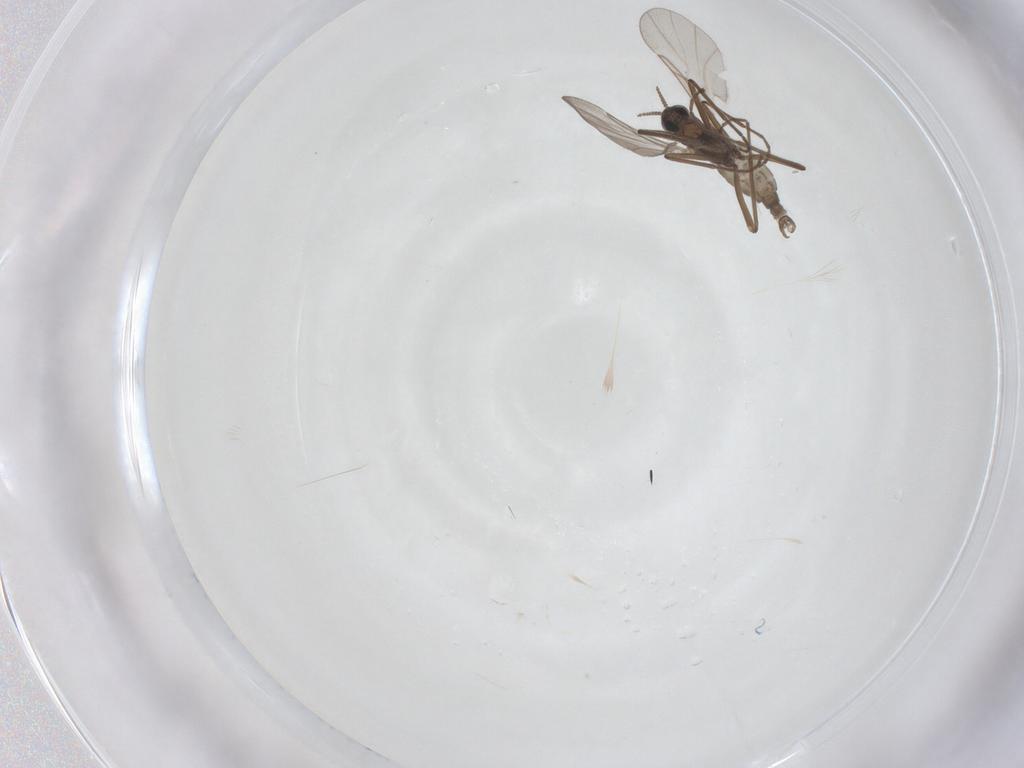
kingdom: Animalia
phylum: Arthropoda
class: Insecta
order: Diptera
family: Cecidomyiidae
